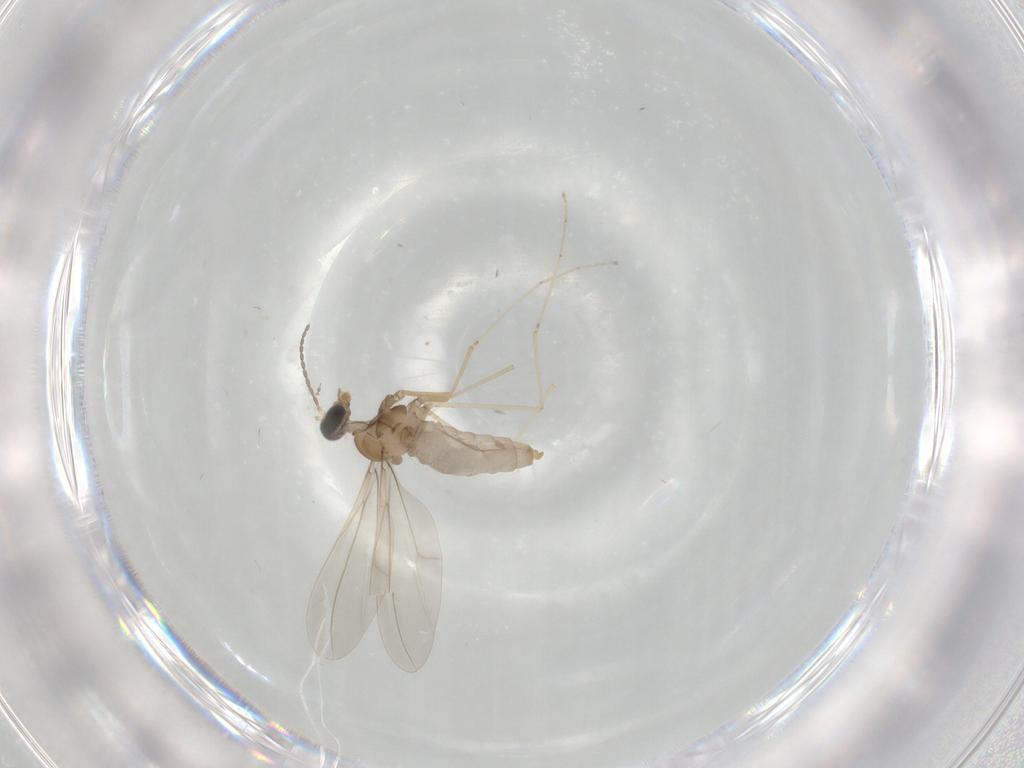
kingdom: Animalia
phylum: Arthropoda
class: Insecta
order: Diptera
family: Cecidomyiidae
